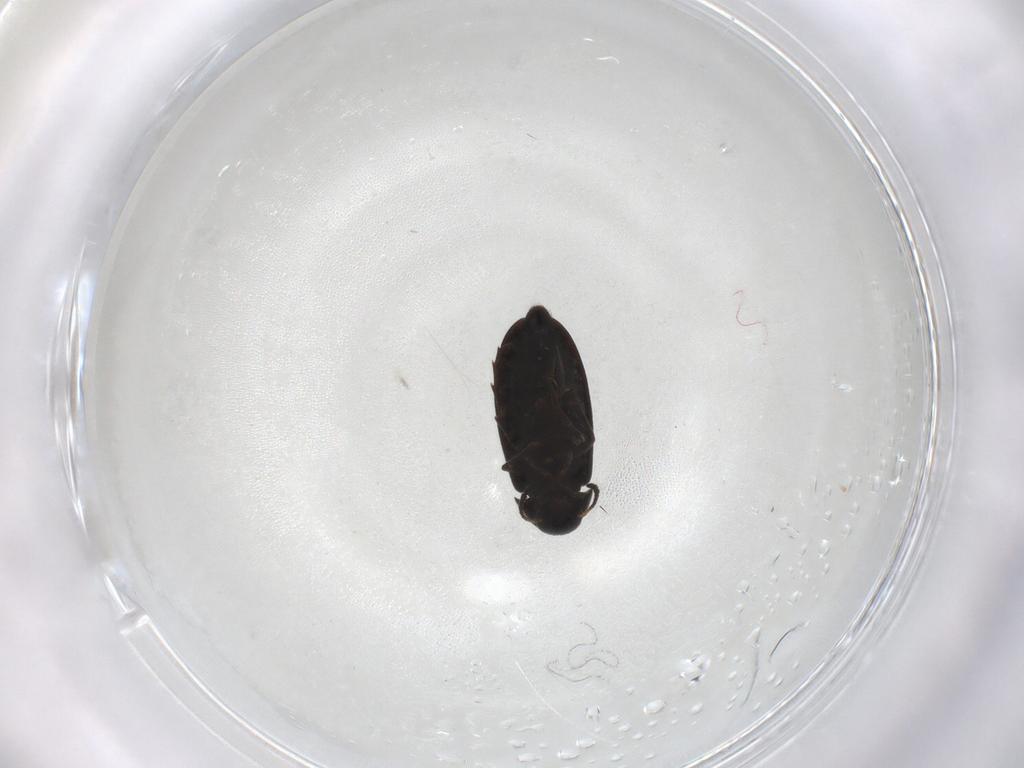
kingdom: Animalia
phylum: Arthropoda
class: Insecta
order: Coleoptera
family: Scraptiidae
